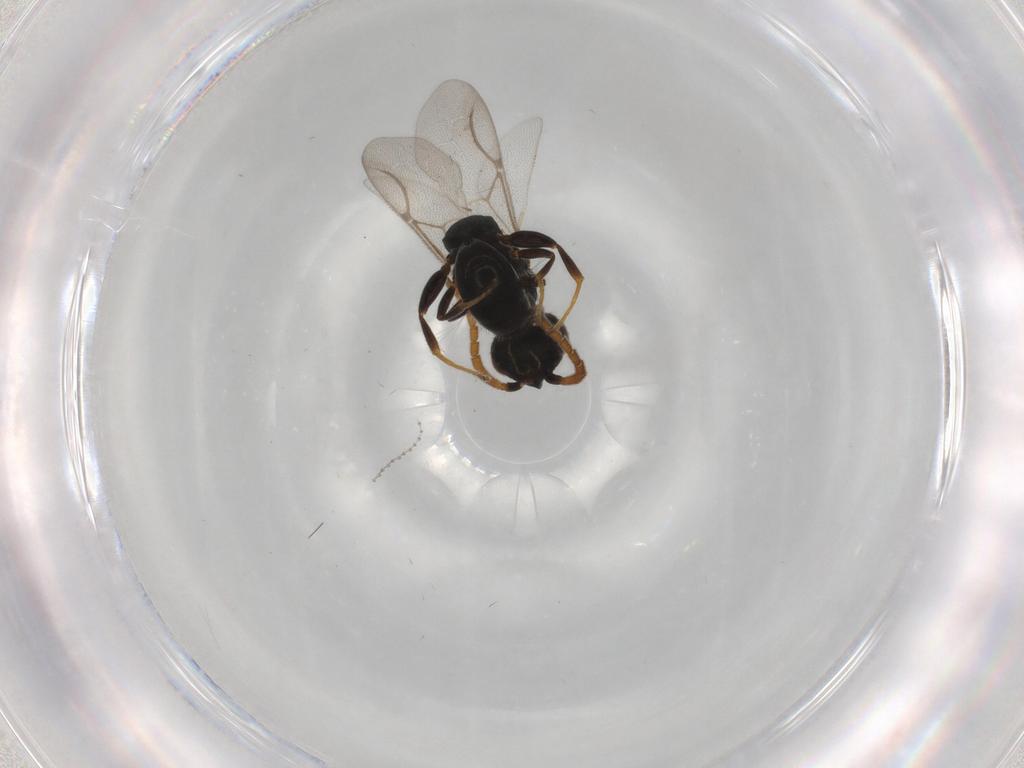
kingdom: Animalia
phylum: Arthropoda
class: Insecta
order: Hymenoptera
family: Bethylidae
